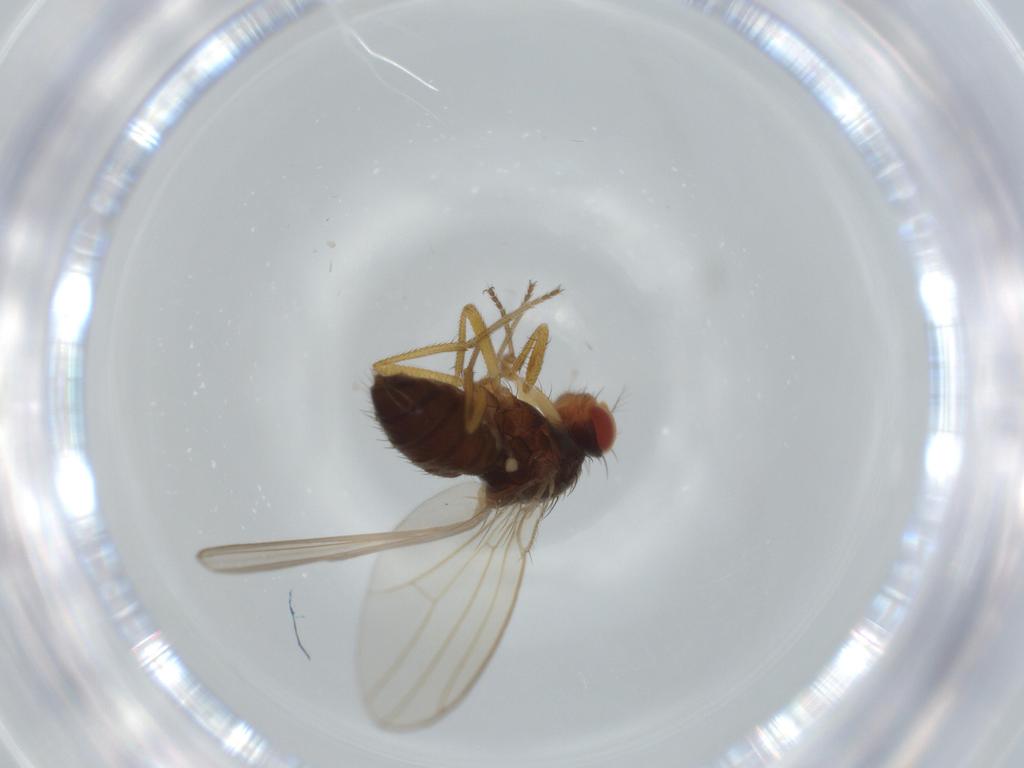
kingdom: Animalia
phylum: Arthropoda
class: Insecta
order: Diptera
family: Drosophilidae
